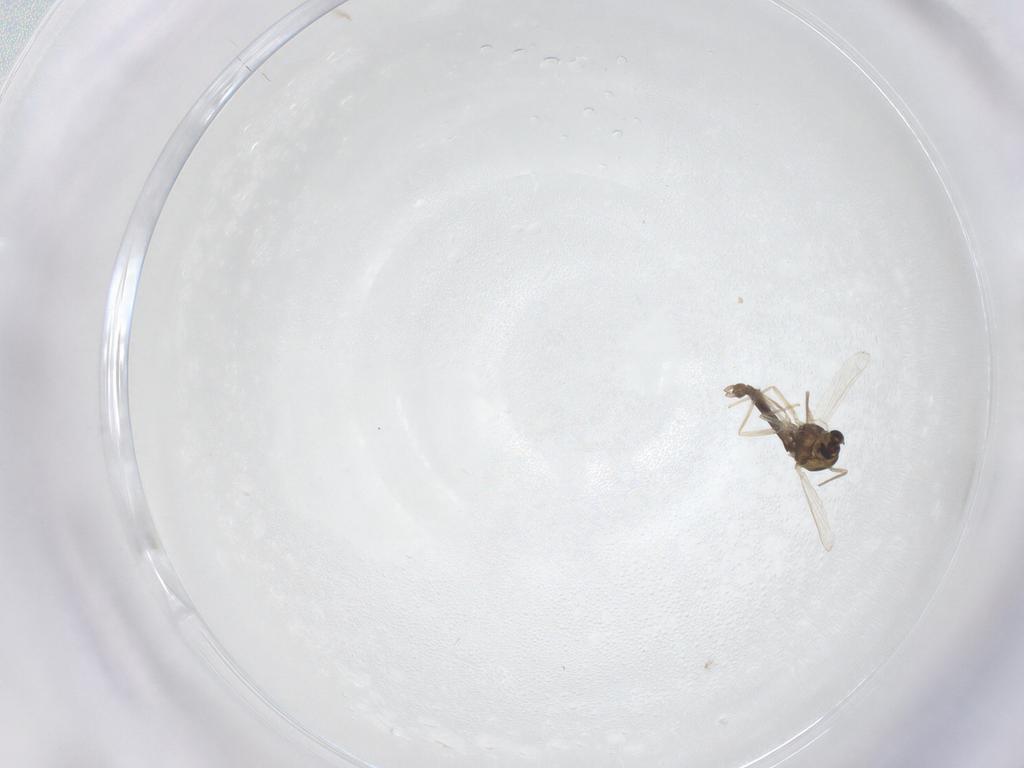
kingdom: Animalia
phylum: Arthropoda
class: Insecta
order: Diptera
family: Chironomidae
